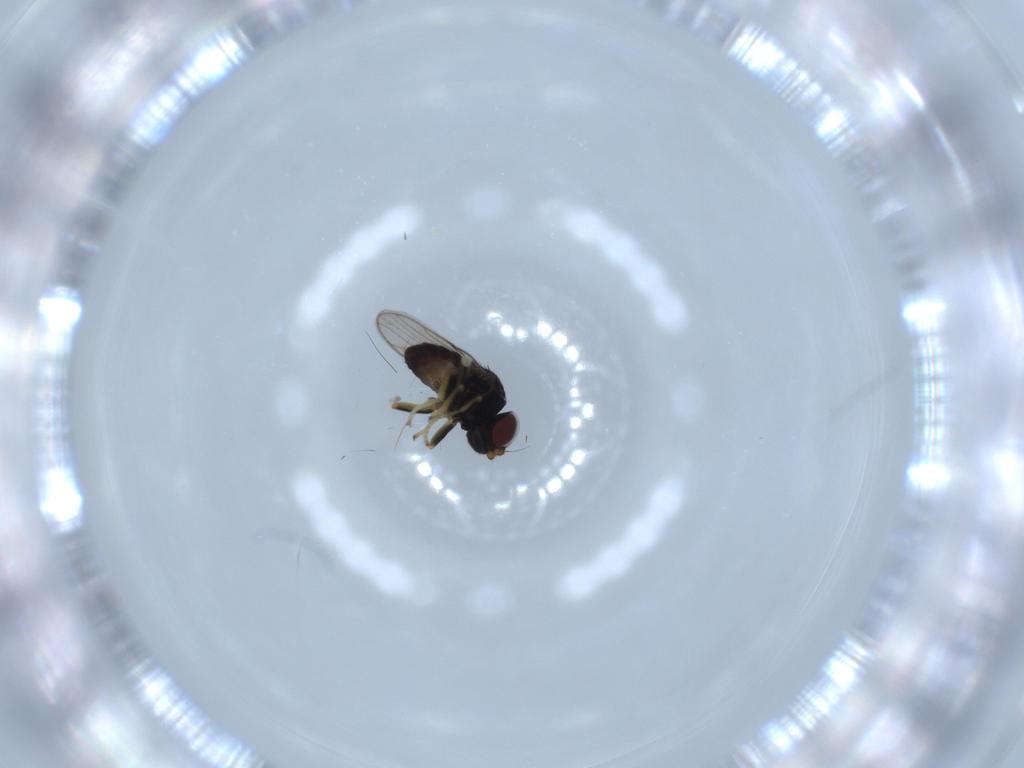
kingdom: Animalia
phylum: Arthropoda
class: Insecta
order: Diptera
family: Chloropidae
